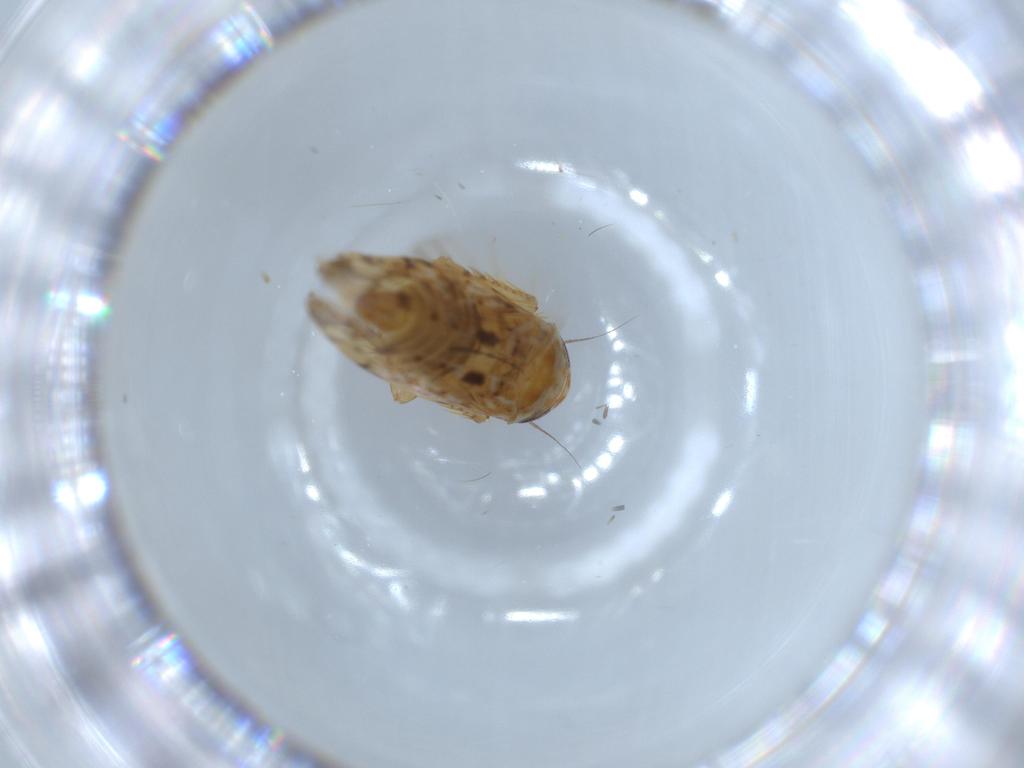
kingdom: Animalia
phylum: Arthropoda
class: Insecta
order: Hemiptera
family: Cicadellidae
